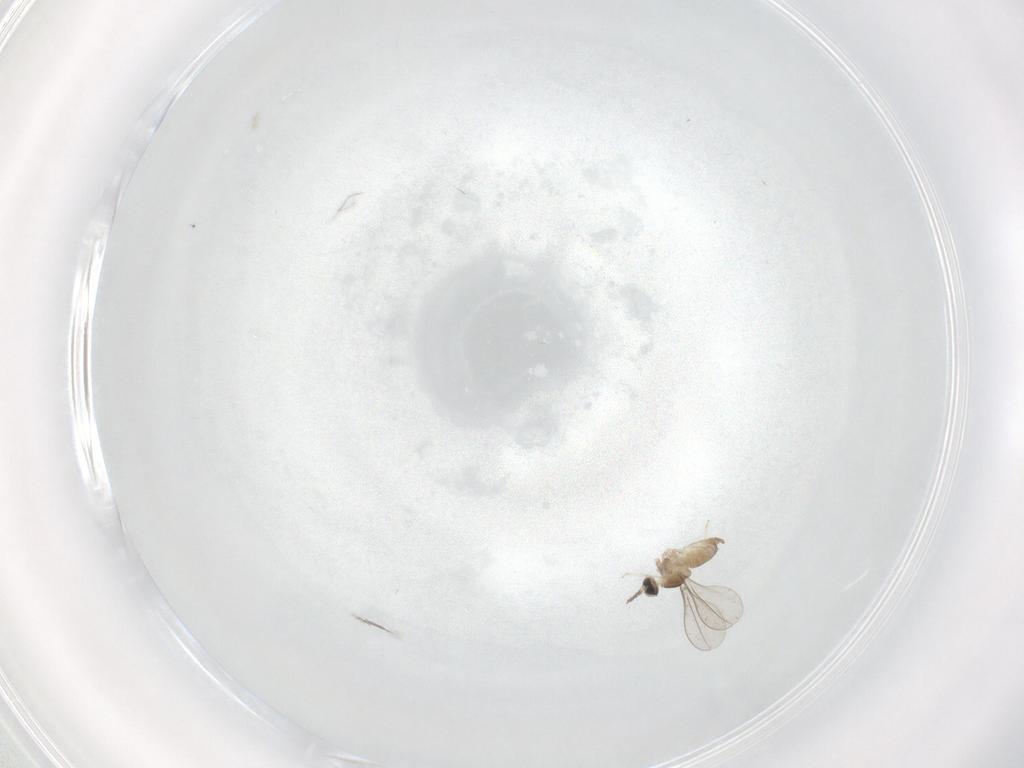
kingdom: Animalia
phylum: Arthropoda
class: Insecta
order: Diptera
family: Cecidomyiidae
